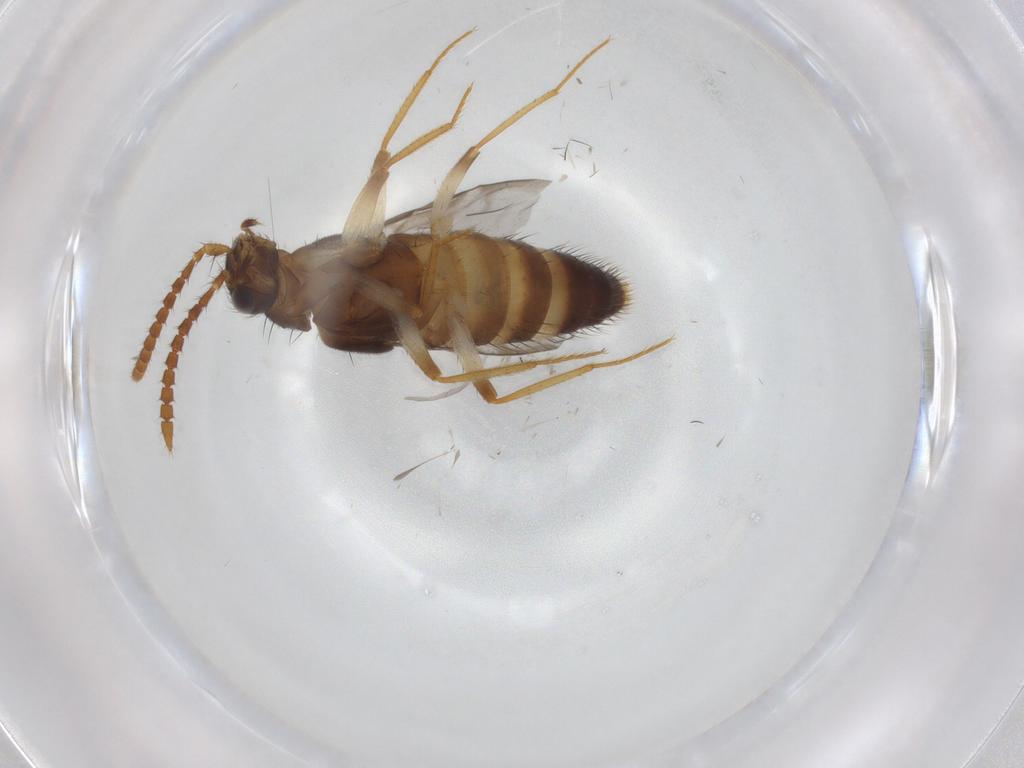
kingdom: Animalia
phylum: Arthropoda
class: Insecta
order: Coleoptera
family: Staphylinidae
